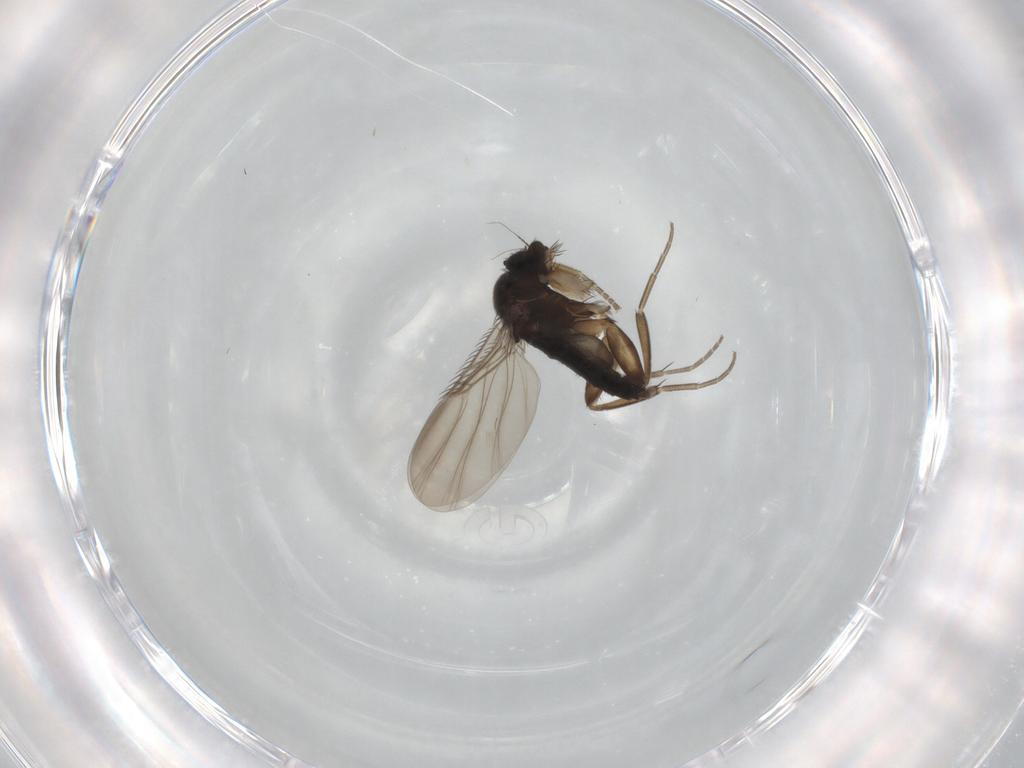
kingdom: Animalia
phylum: Arthropoda
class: Insecta
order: Diptera
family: Phoridae
